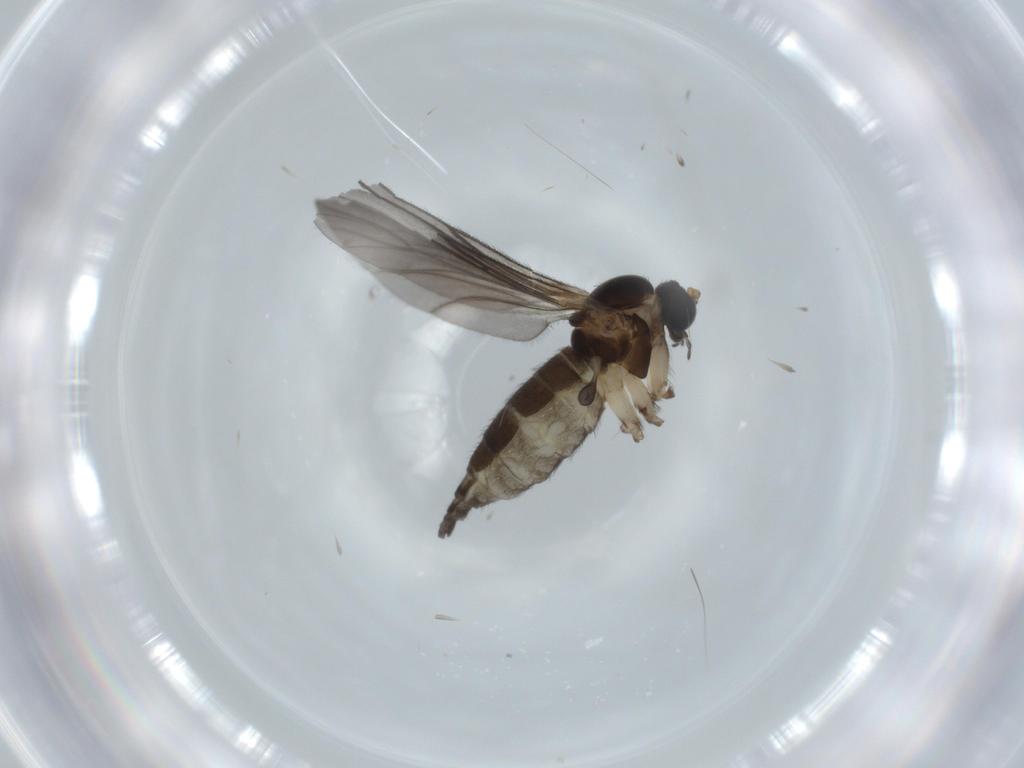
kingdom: Animalia
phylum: Arthropoda
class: Insecta
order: Diptera
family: Sciaridae
